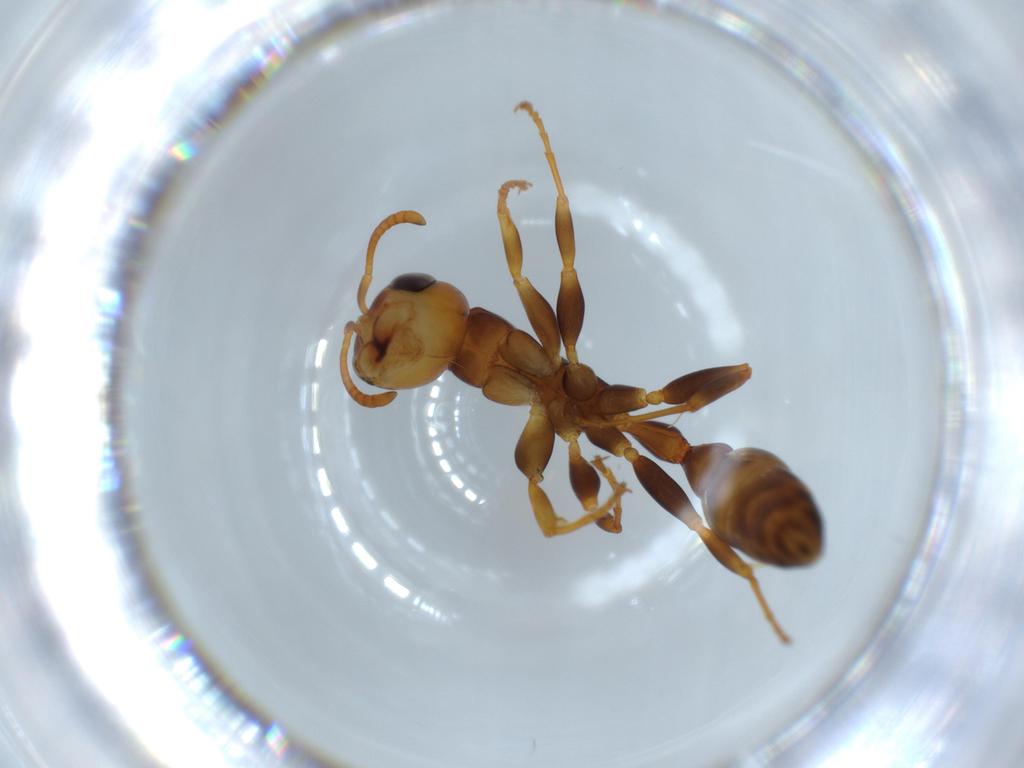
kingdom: Animalia
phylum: Arthropoda
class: Insecta
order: Hymenoptera
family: Formicidae
